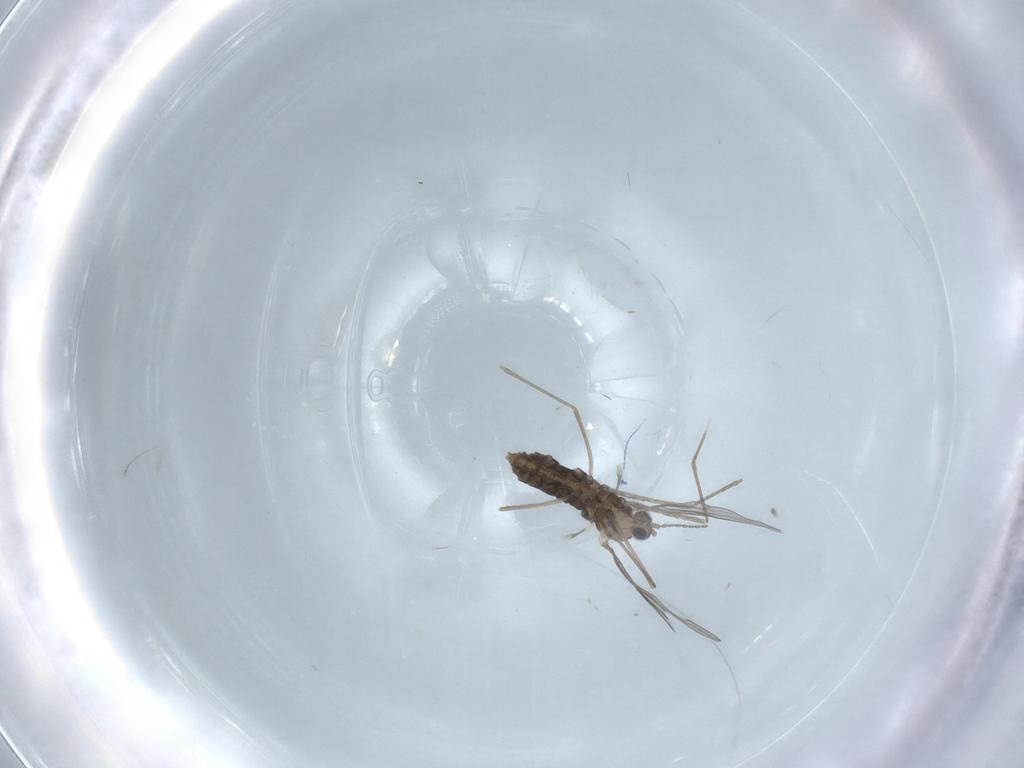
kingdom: Animalia
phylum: Arthropoda
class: Insecta
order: Diptera
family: Cecidomyiidae
